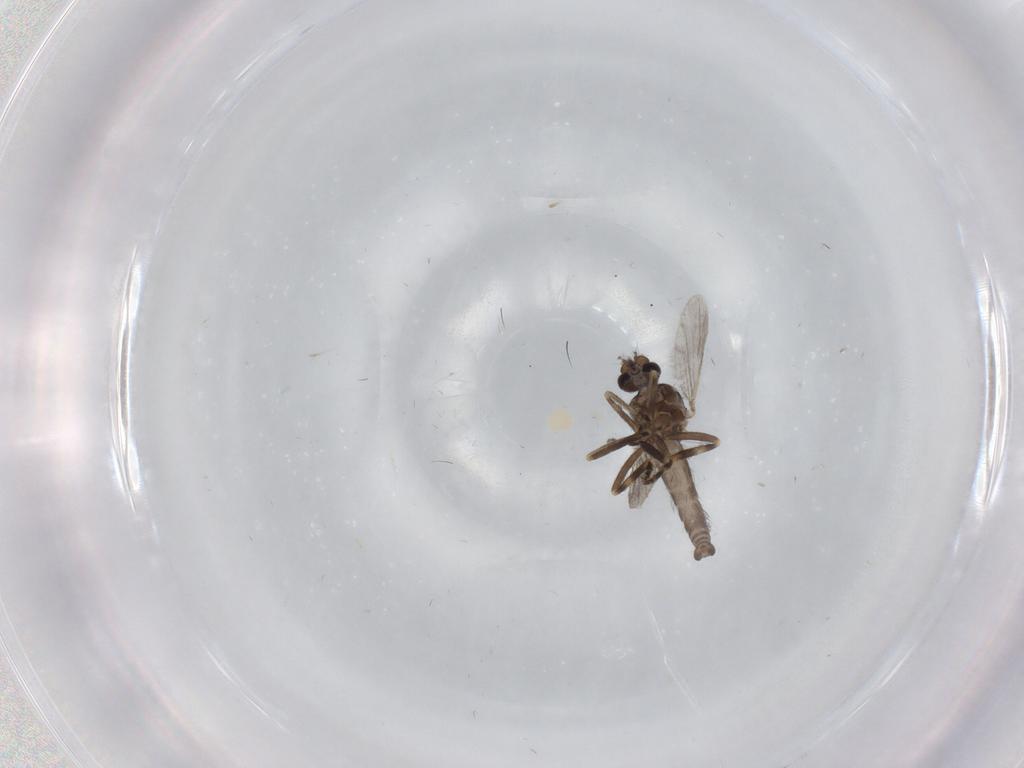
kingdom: Animalia
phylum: Arthropoda
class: Insecta
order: Diptera
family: Ceratopogonidae
